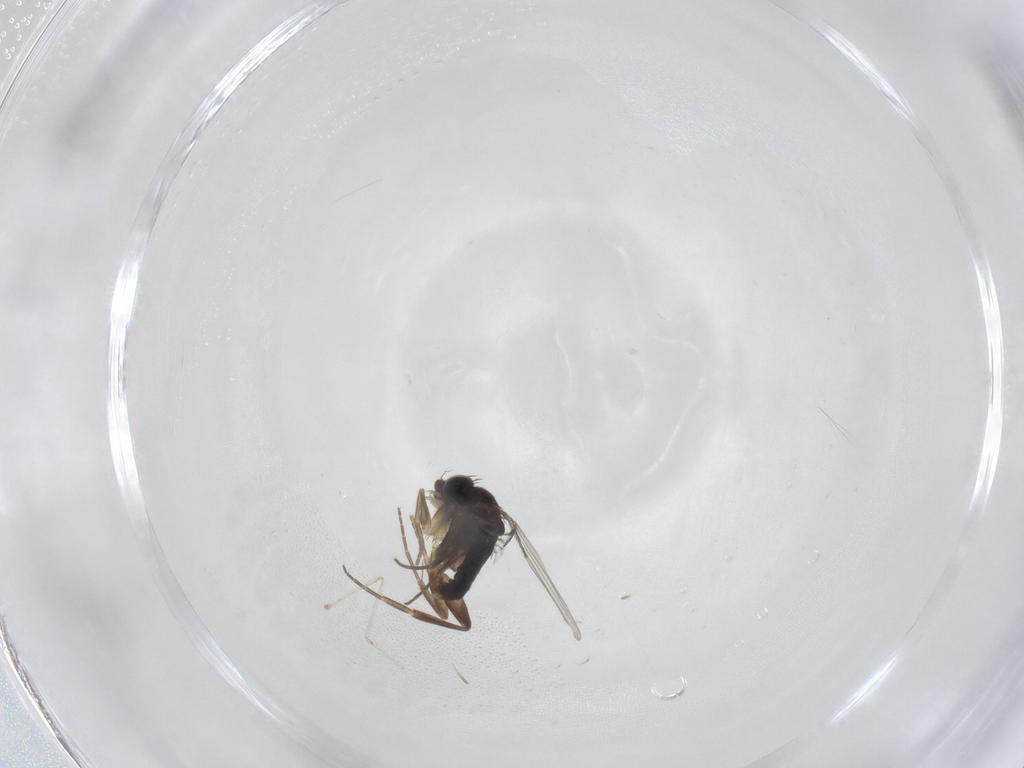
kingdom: Animalia
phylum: Arthropoda
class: Insecta
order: Diptera
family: Phoridae
